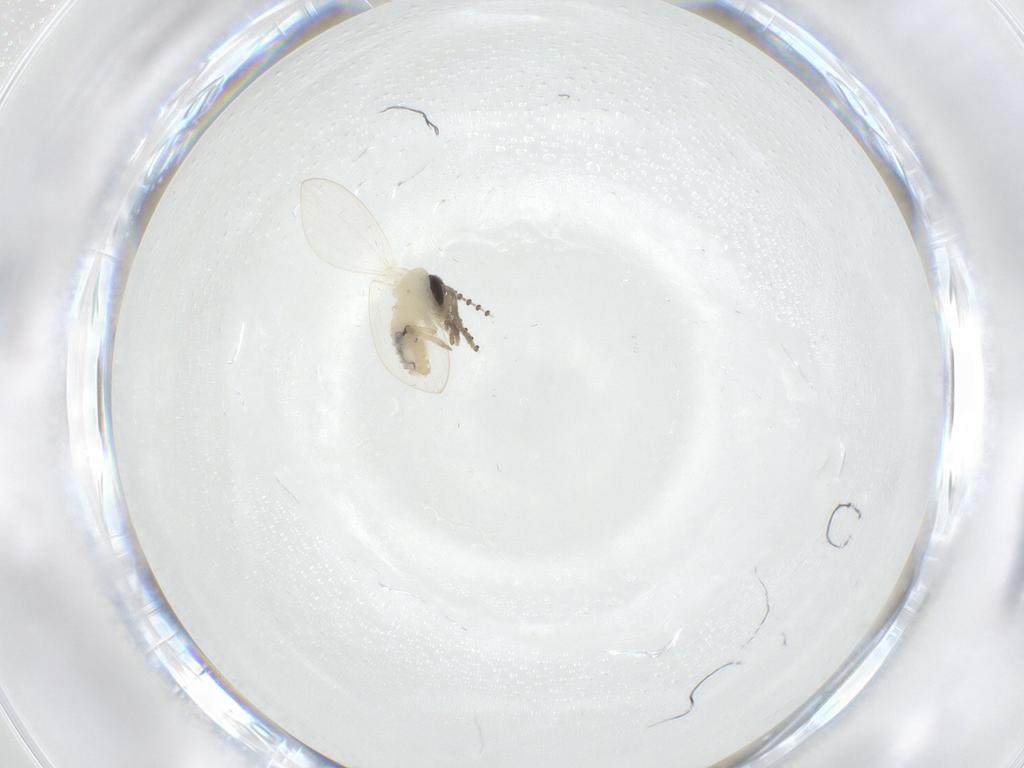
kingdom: Animalia
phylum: Arthropoda
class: Insecta
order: Diptera
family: Psychodidae
